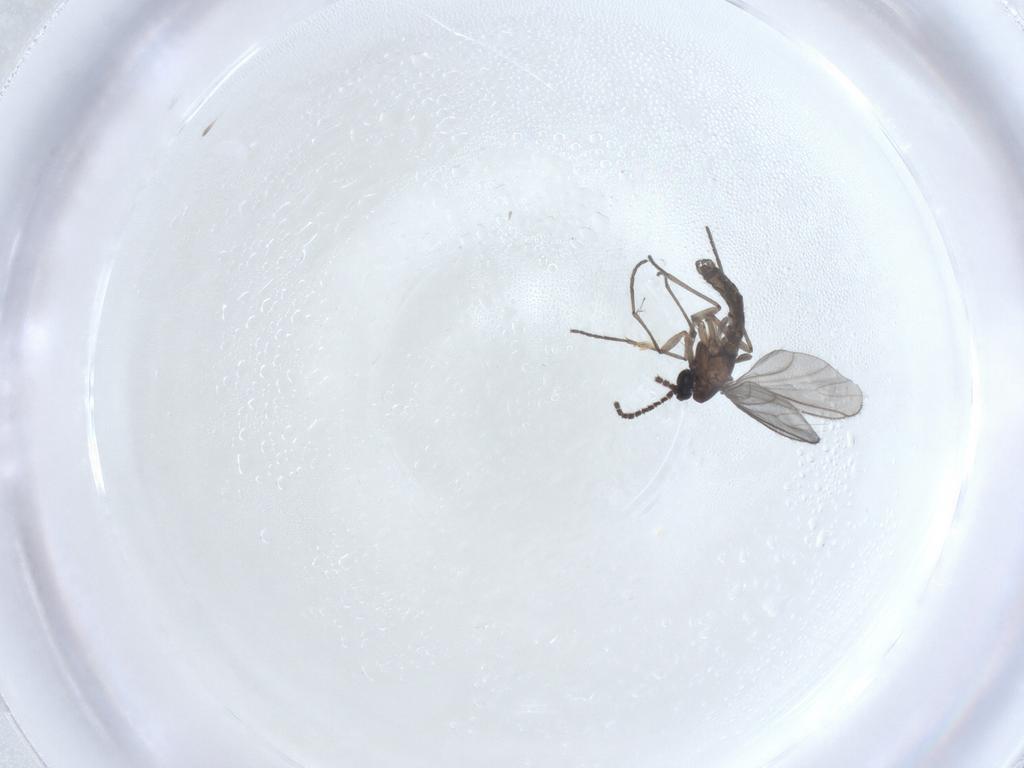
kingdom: Animalia
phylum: Arthropoda
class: Insecta
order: Diptera
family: Sciaridae
